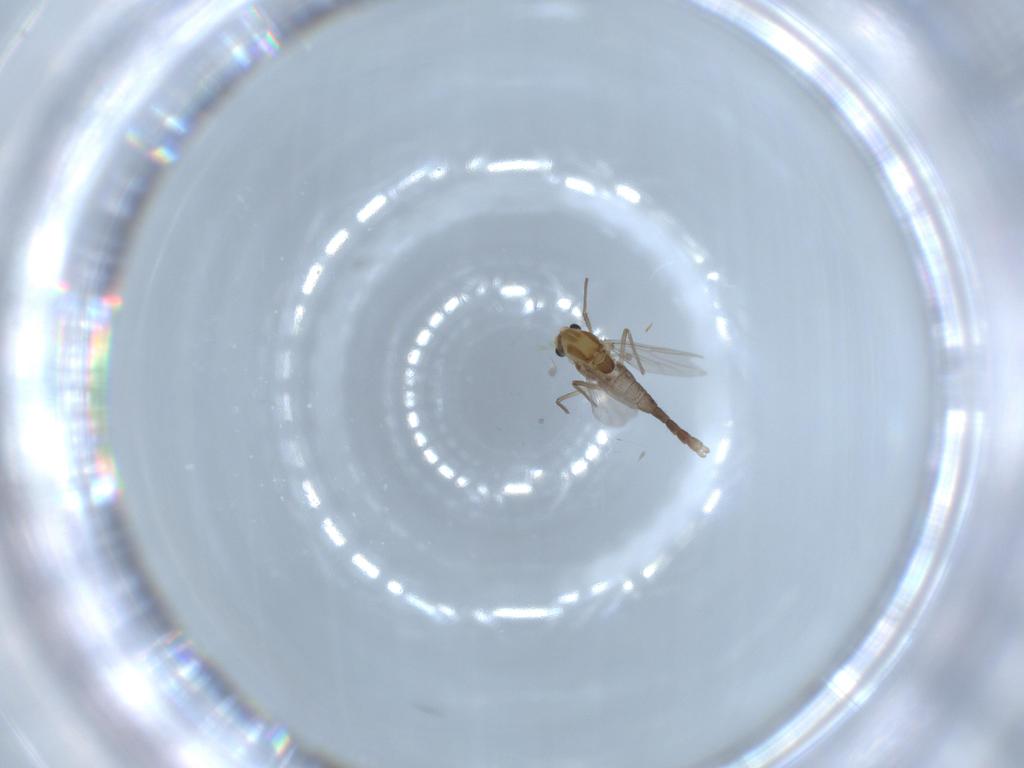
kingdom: Animalia
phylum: Arthropoda
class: Insecta
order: Diptera
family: Chironomidae
